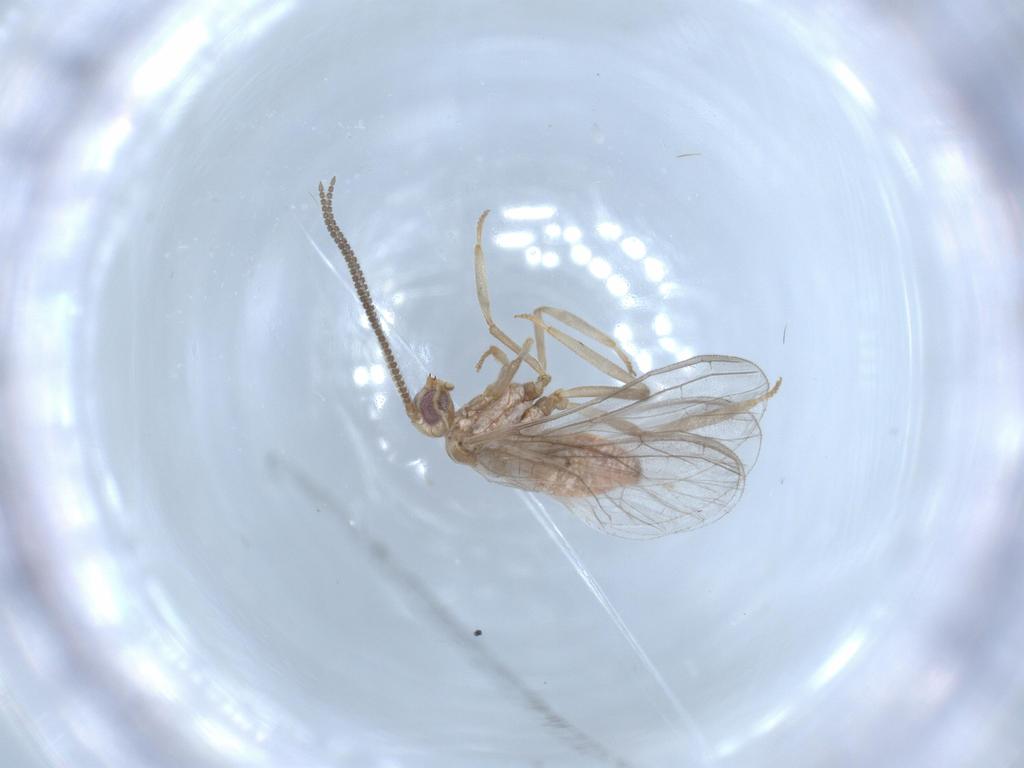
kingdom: Animalia
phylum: Arthropoda
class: Insecta
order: Neuroptera
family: Coniopterygidae
